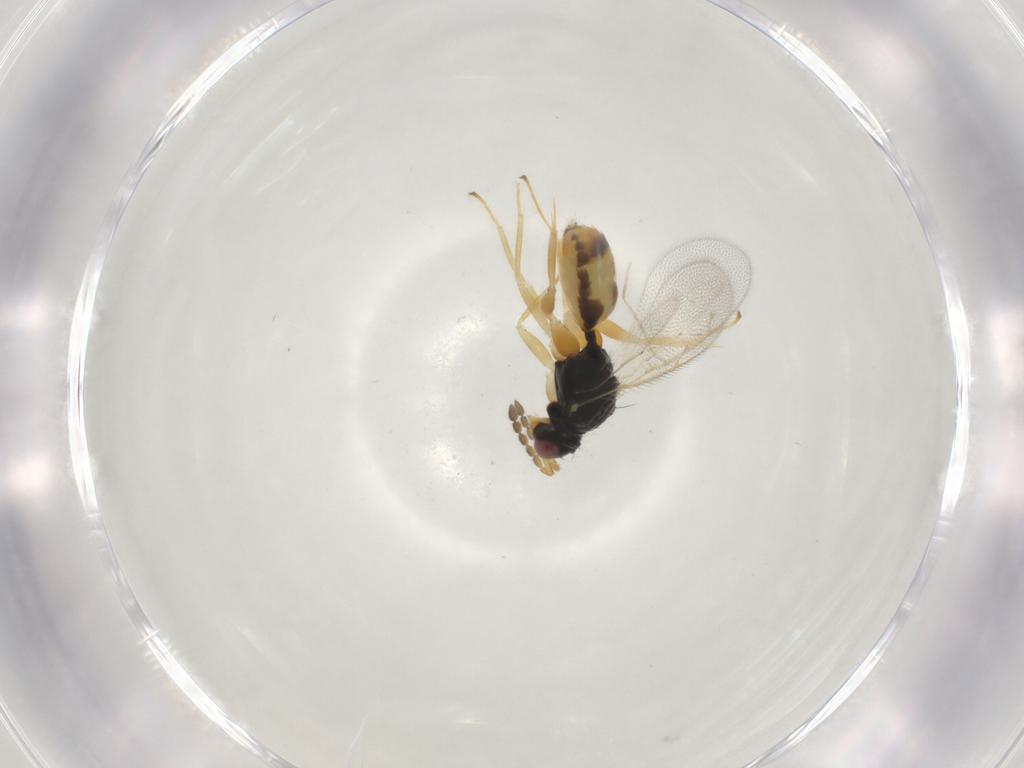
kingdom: Animalia
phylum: Arthropoda
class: Insecta
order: Hymenoptera
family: Eulophidae
